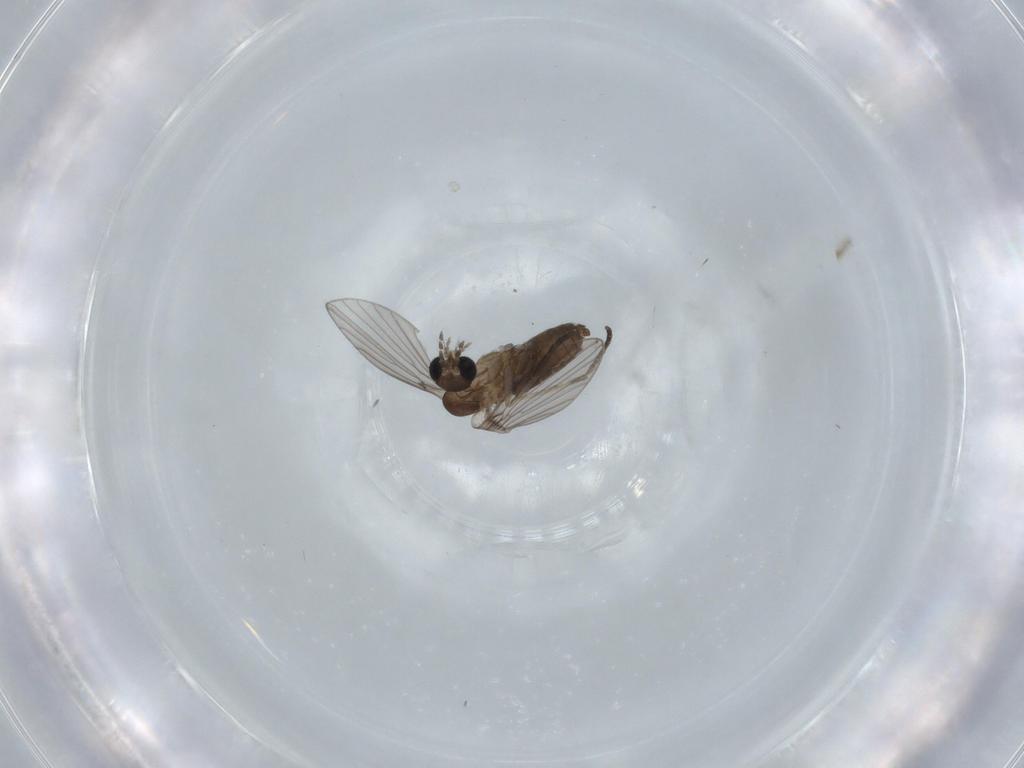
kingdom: Animalia
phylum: Arthropoda
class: Insecta
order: Diptera
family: Psychodidae
